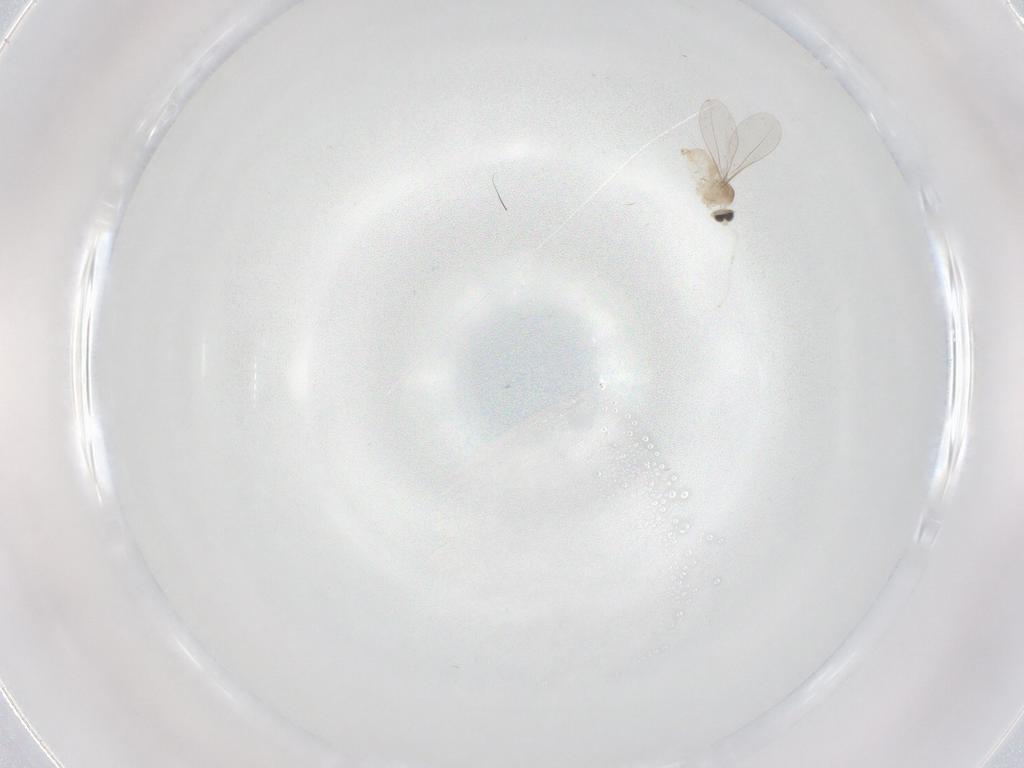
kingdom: Animalia
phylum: Arthropoda
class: Insecta
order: Diptera
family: Cecidomyiidae
